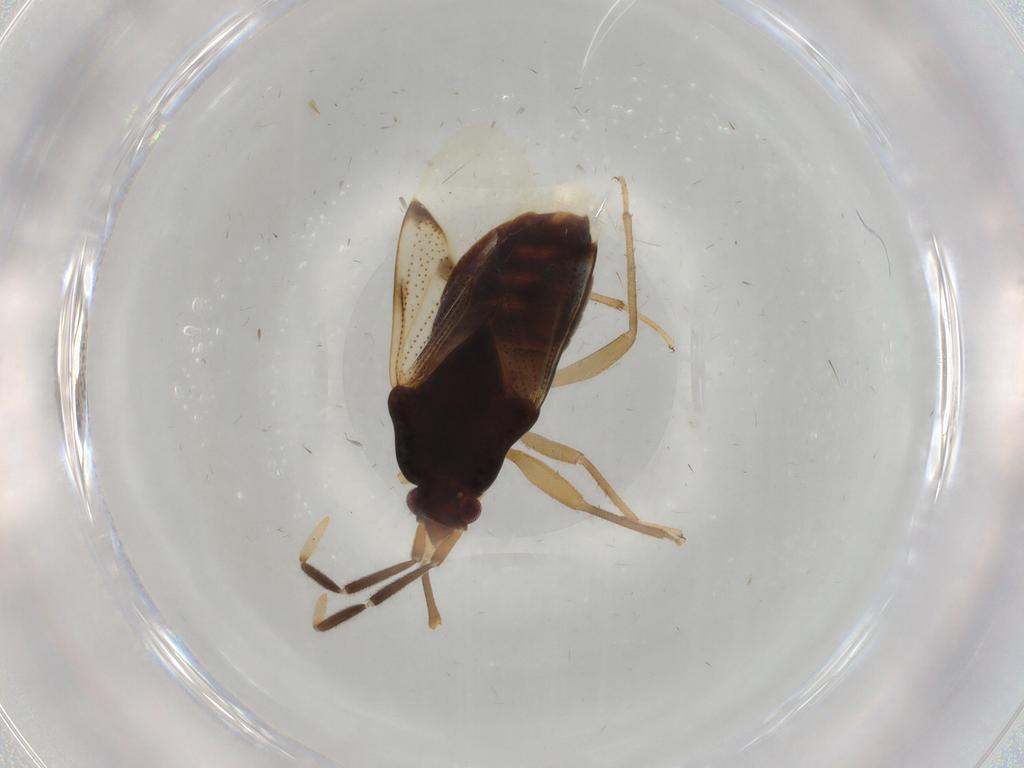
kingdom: Animalia
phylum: Arthropoda
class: Insecta
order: Hemiptera
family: Rhyparochromidae
